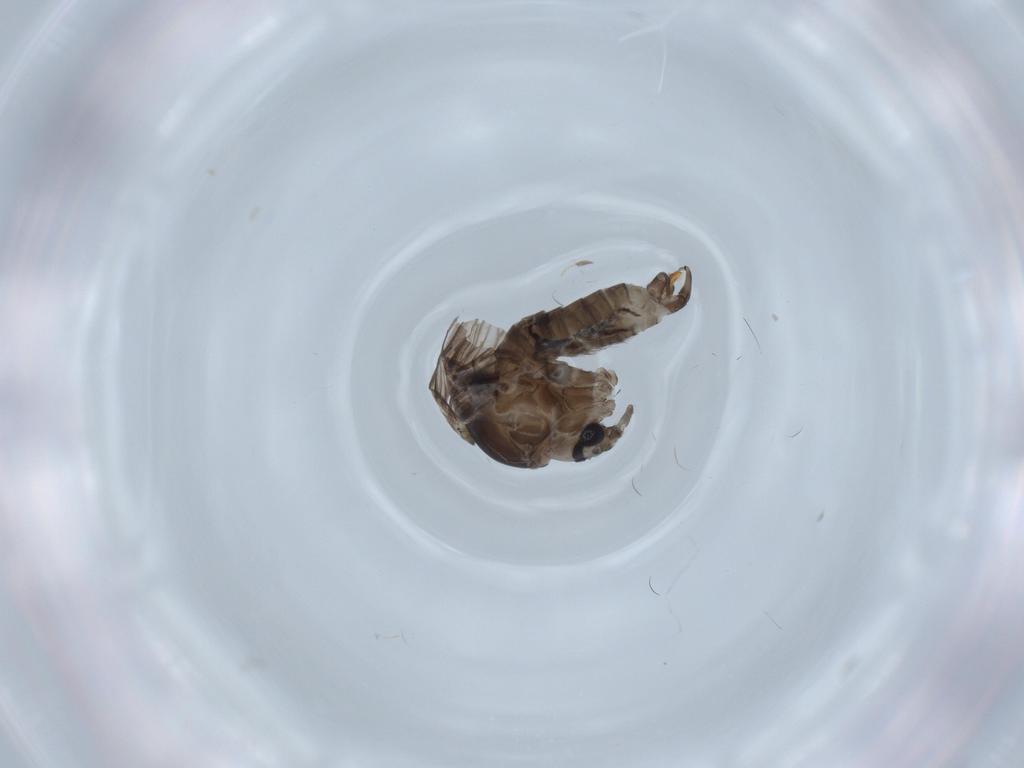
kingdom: Animalia
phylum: Arthropoda
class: Insecta
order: Diptera
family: Psychodidae
